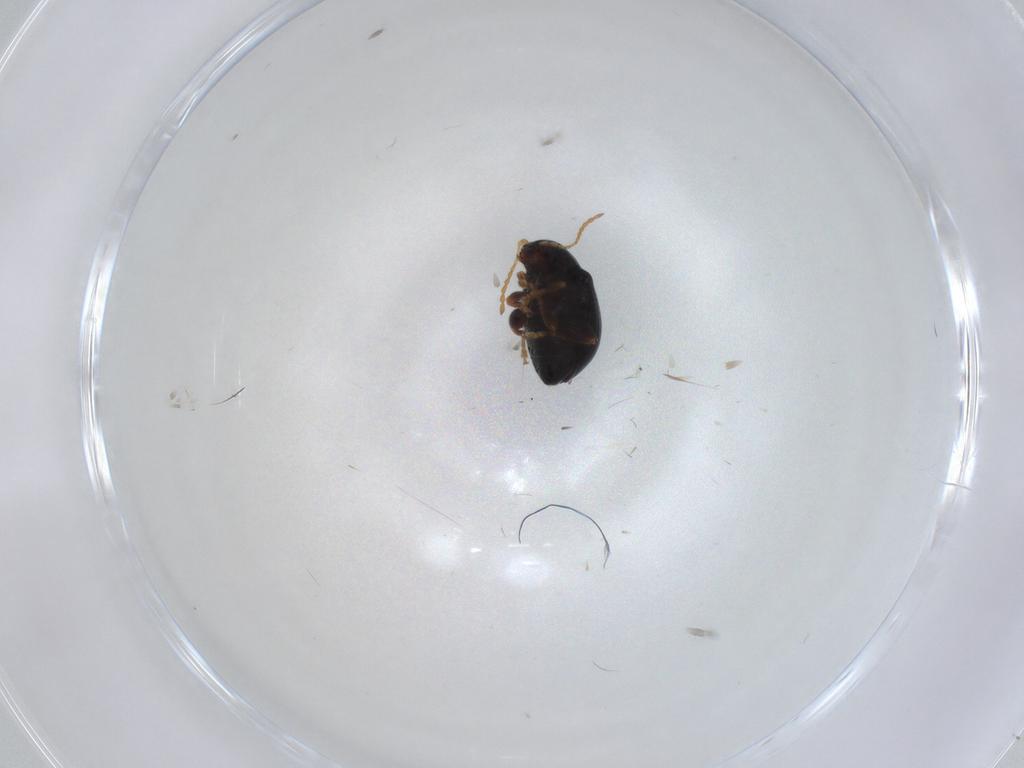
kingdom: Animalia
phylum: Arthropoda
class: Insecta
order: Coleoptera
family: Chrysomelidae
